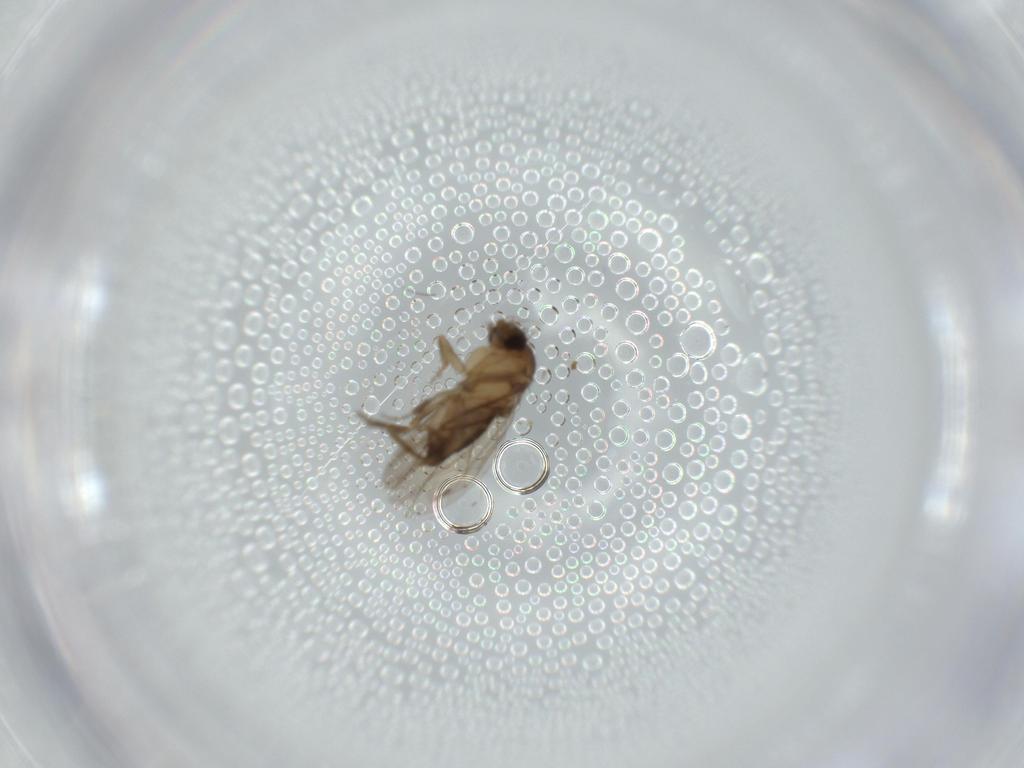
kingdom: Animalia
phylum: Arthropoda
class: Insecta
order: Diptera
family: Phoridae
